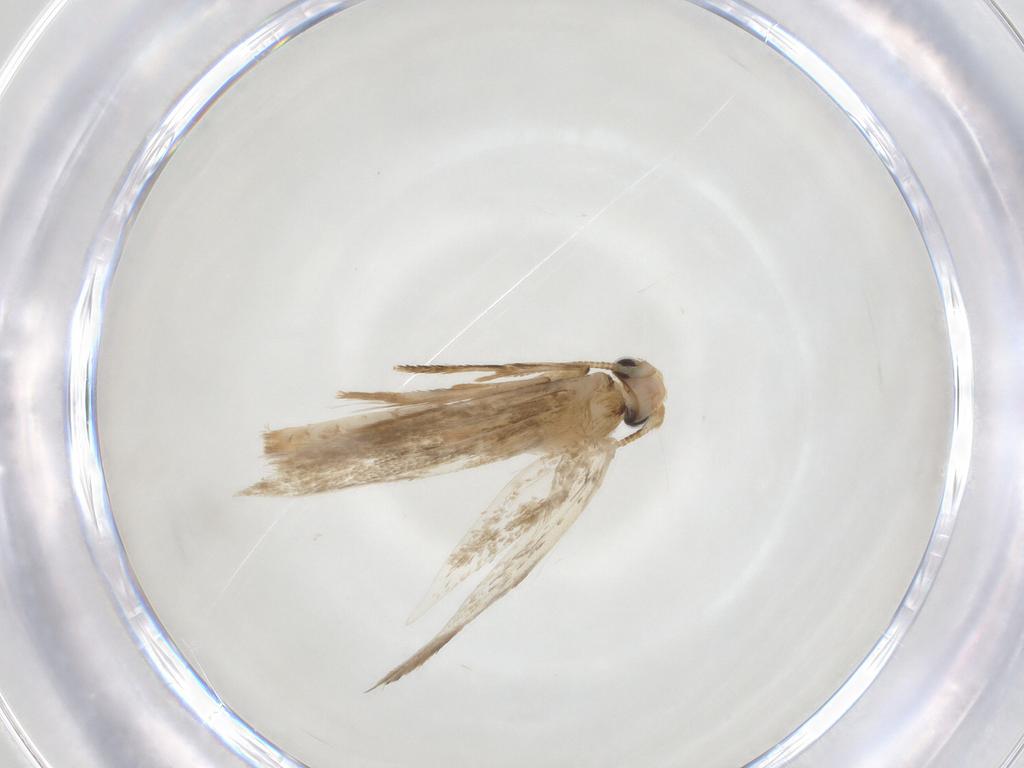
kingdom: Animalia
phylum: Arthropoda
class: Insecta
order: Lepidoptera
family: Tineidae
